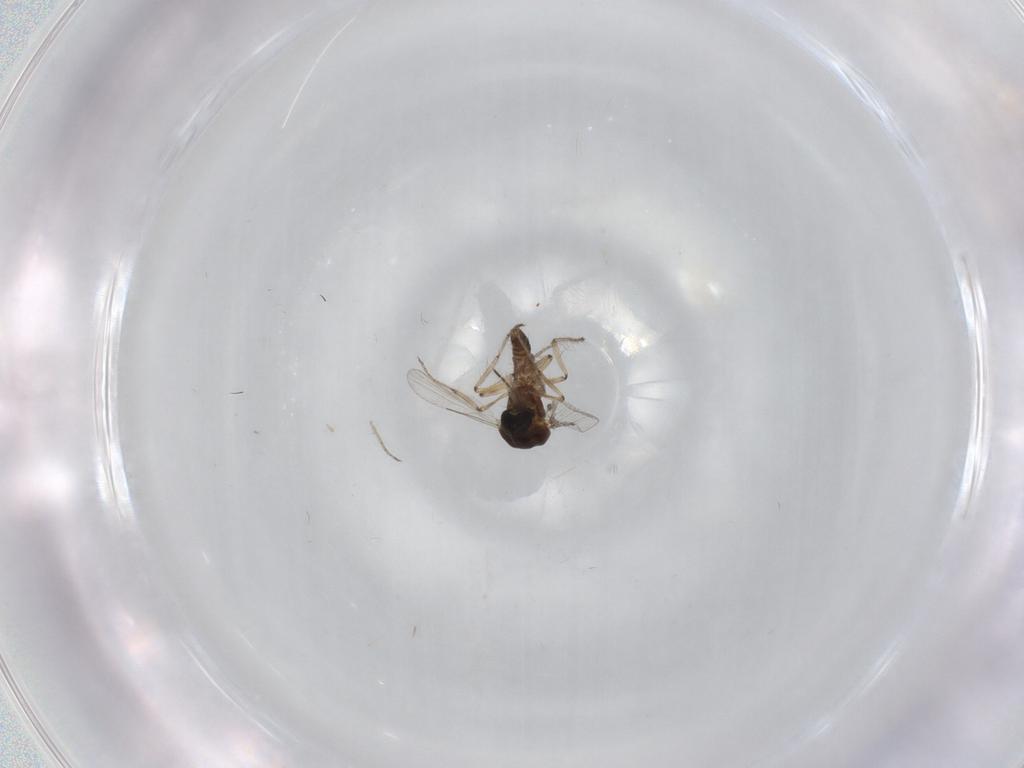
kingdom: Animalia
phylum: Arthropoda
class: Insecta
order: Diptera
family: Ceratopogonidae
